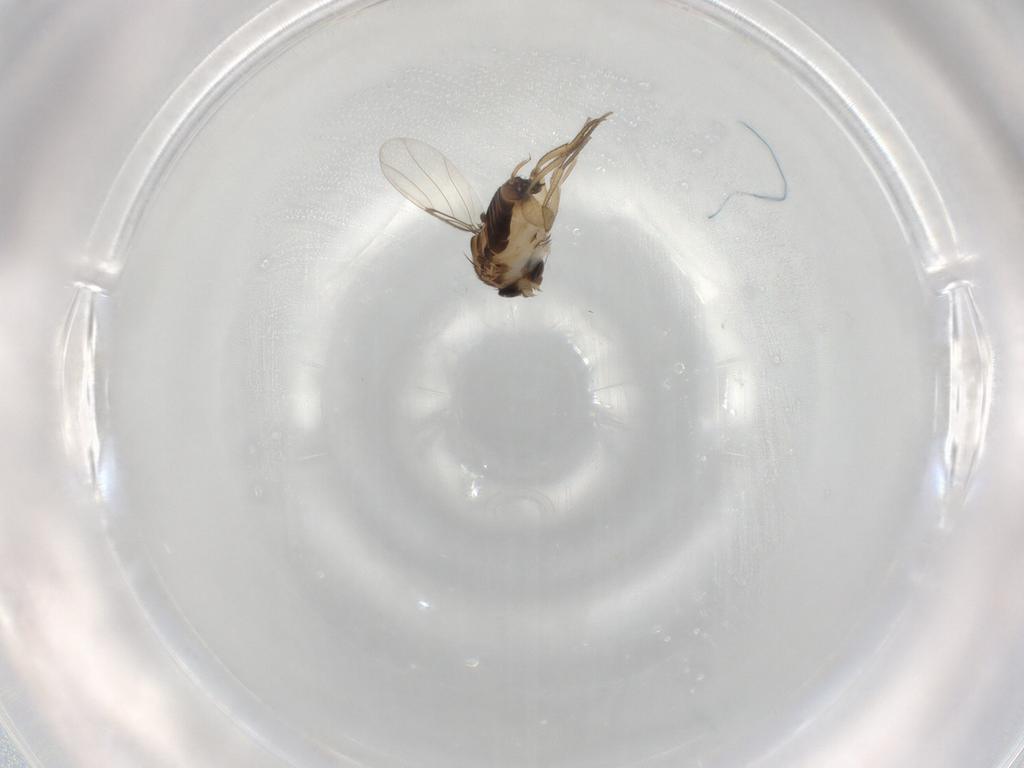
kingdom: Animalia
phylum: Arthropoda
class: Insecta
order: Diptera
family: Phoridae
